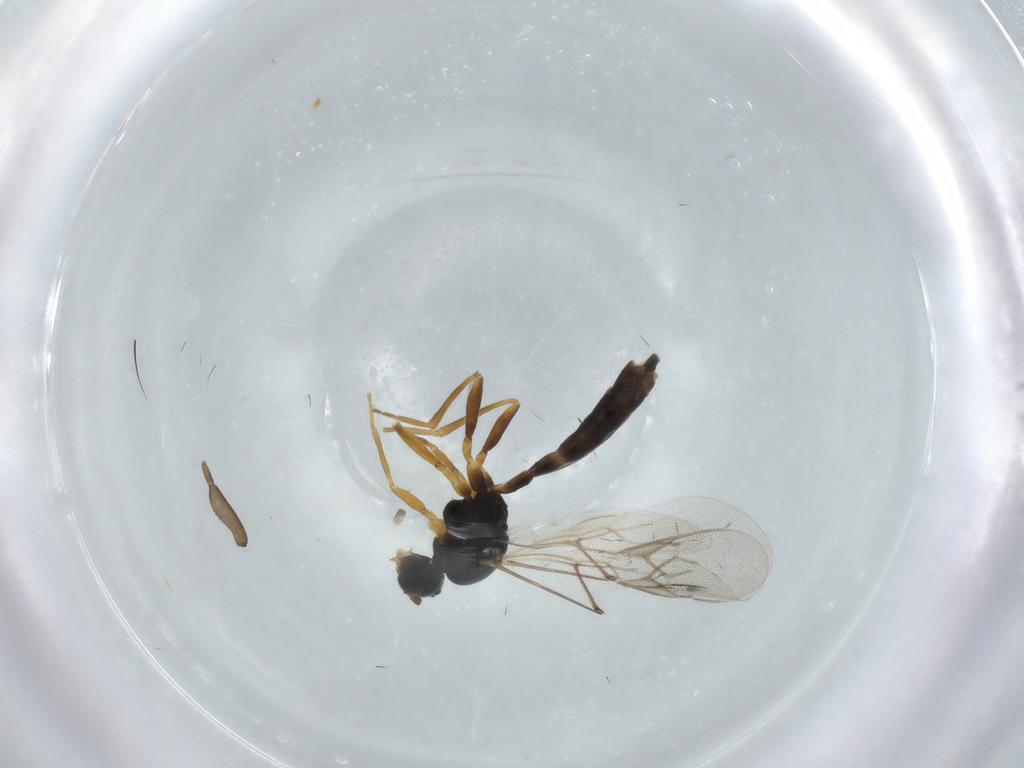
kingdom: Animalia
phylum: Arthropoda
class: Insecta
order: Hymenoptera
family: Braconidae
